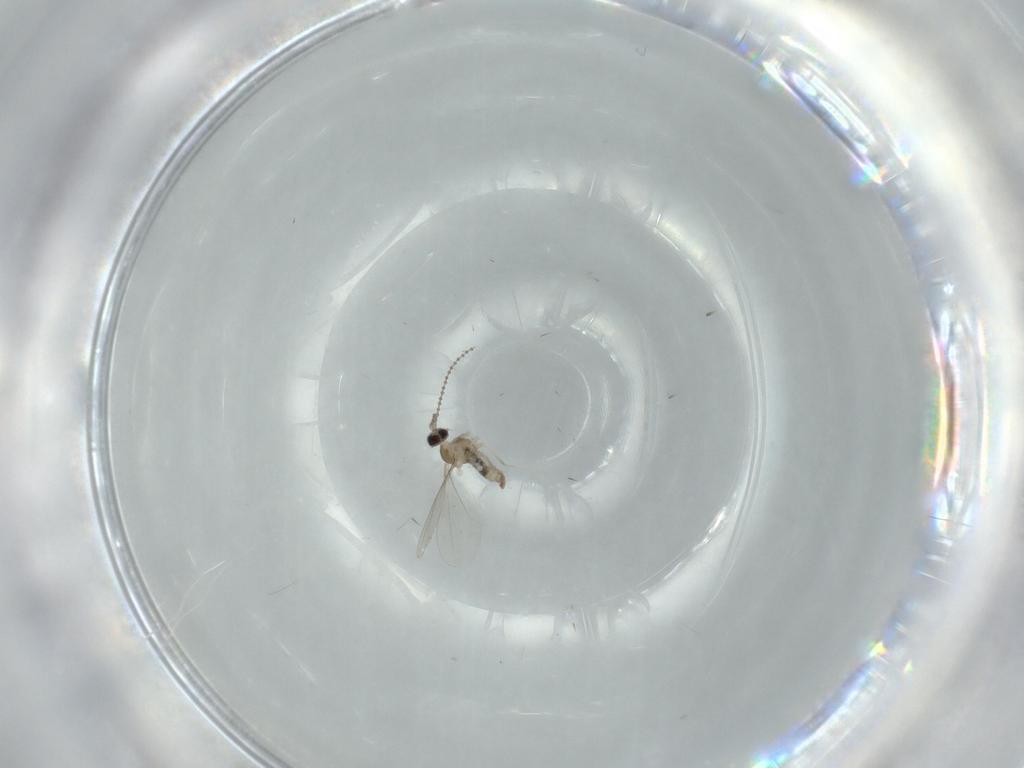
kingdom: Animalia
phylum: Arthropoda
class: Insecta
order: Diptera
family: Cecidomyiidae
